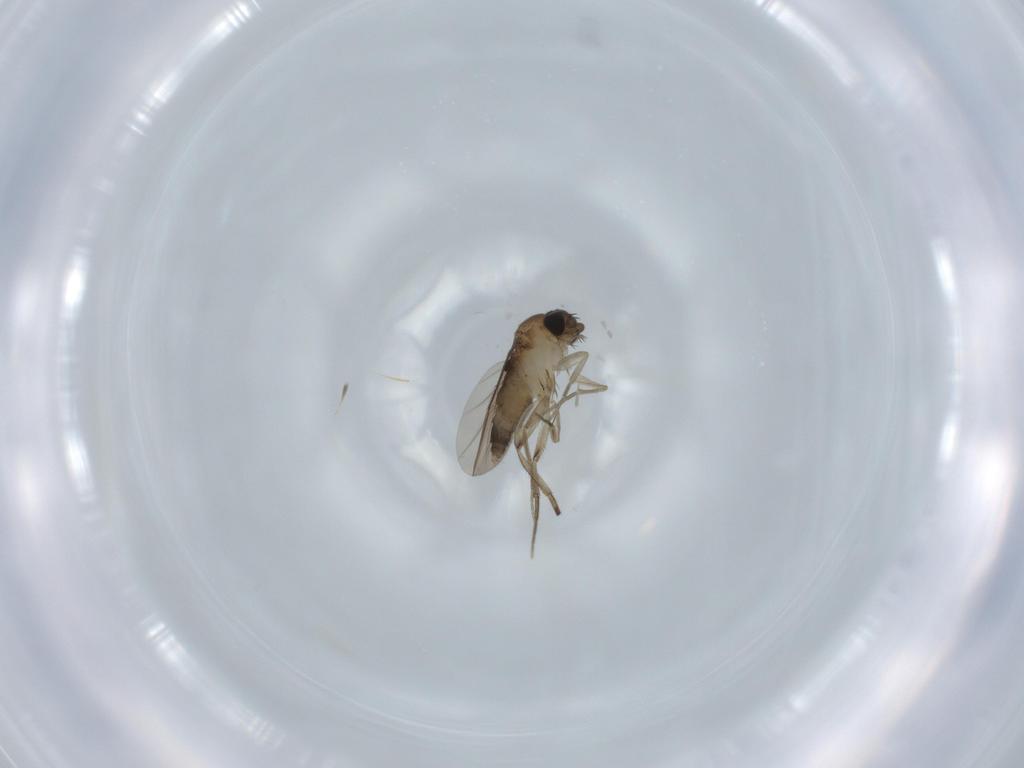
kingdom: Animalia
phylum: Arthropoda
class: Insecta
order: Diptera
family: Phoridae
